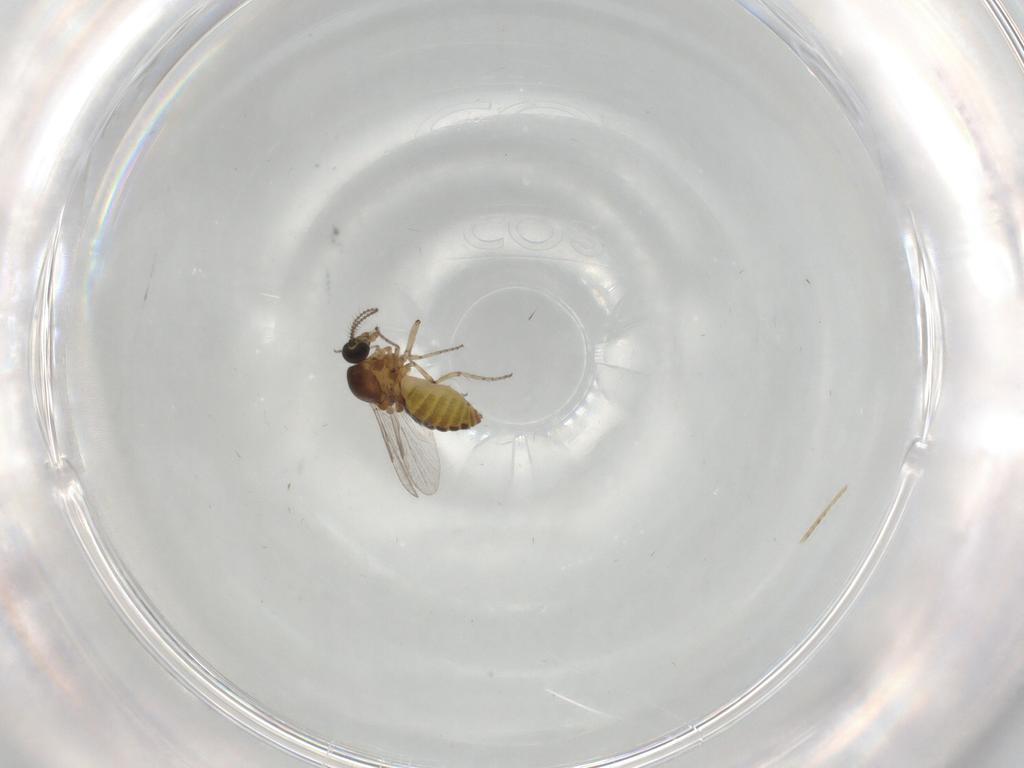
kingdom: Animalia
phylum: Arthropoda
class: Insecta
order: Diptera
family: Ceratopogonidae
